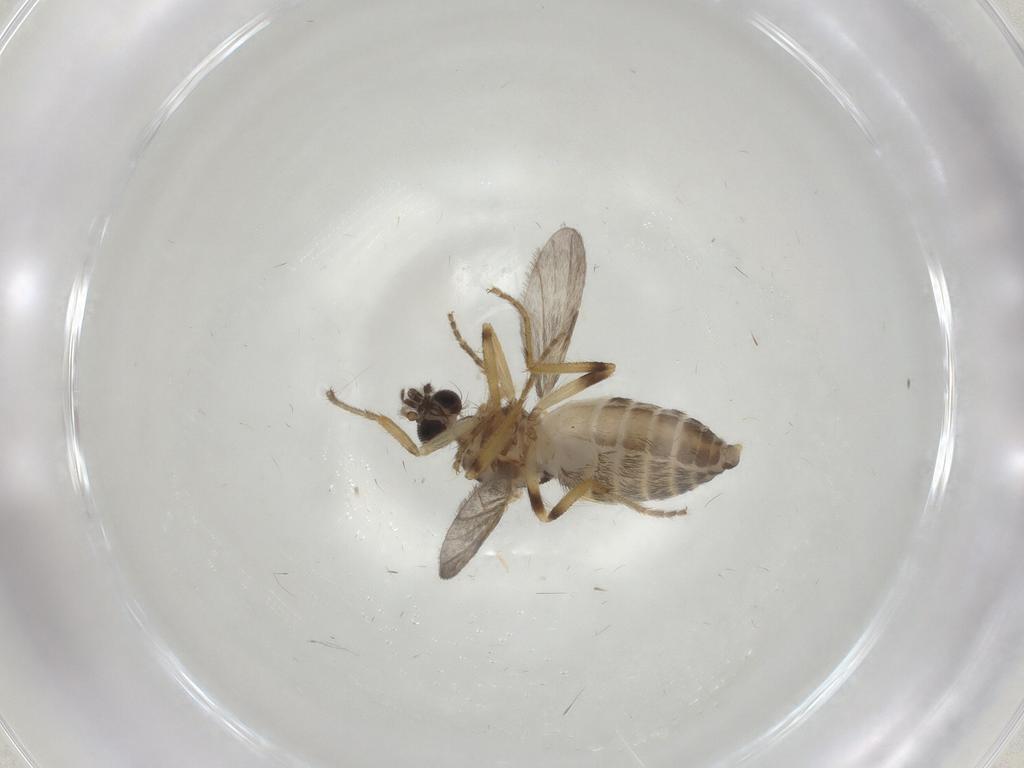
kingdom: Animalia
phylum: Arthropoda
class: Insecta
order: Diptera
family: Ceratopogonidae
